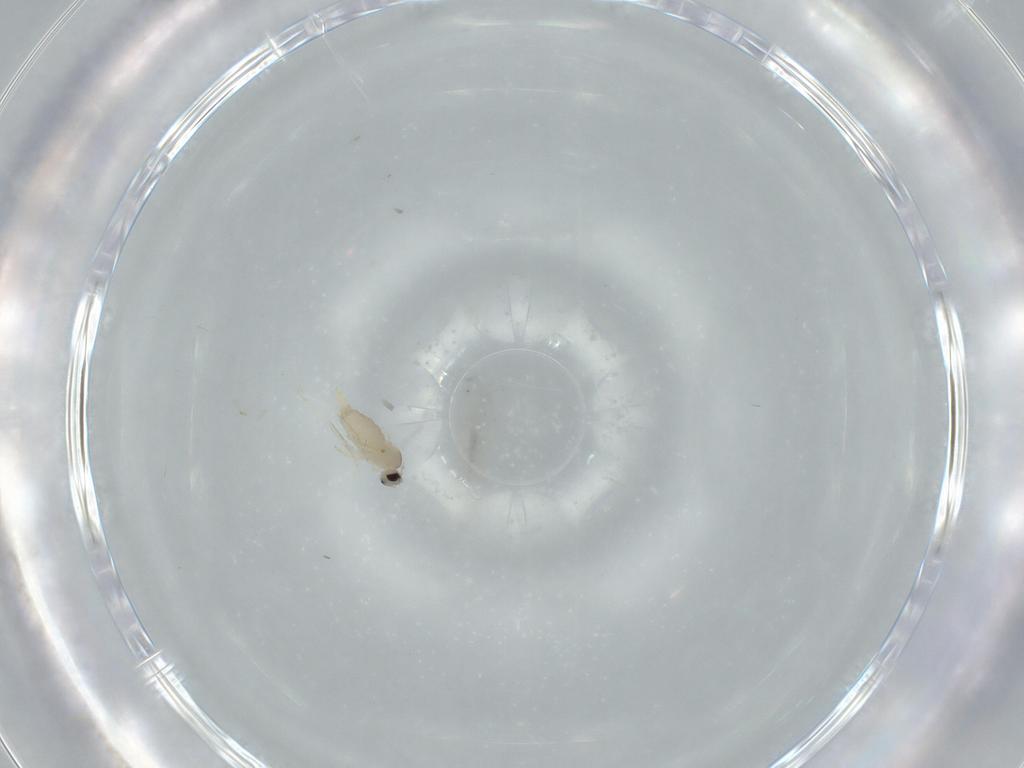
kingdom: Animalia
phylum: Arthropoda
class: Insecta
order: Diptera
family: Cecidomyiidae
